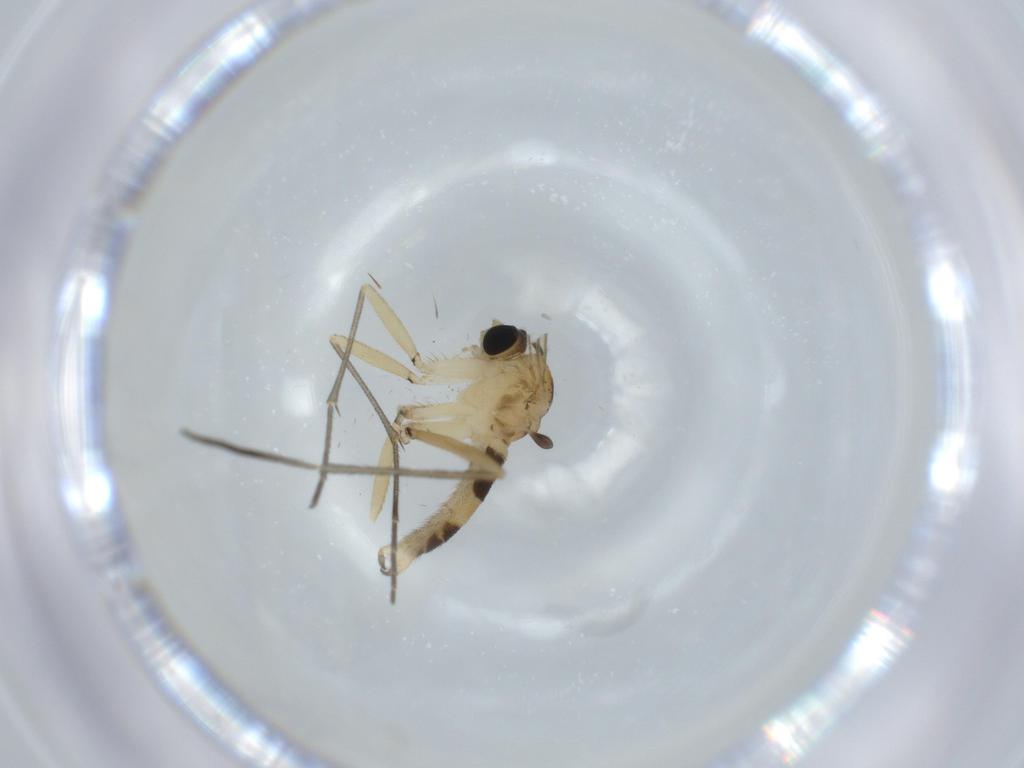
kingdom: Animalia
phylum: Arthropoda
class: Insecta
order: Diptera
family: Sciaridae
